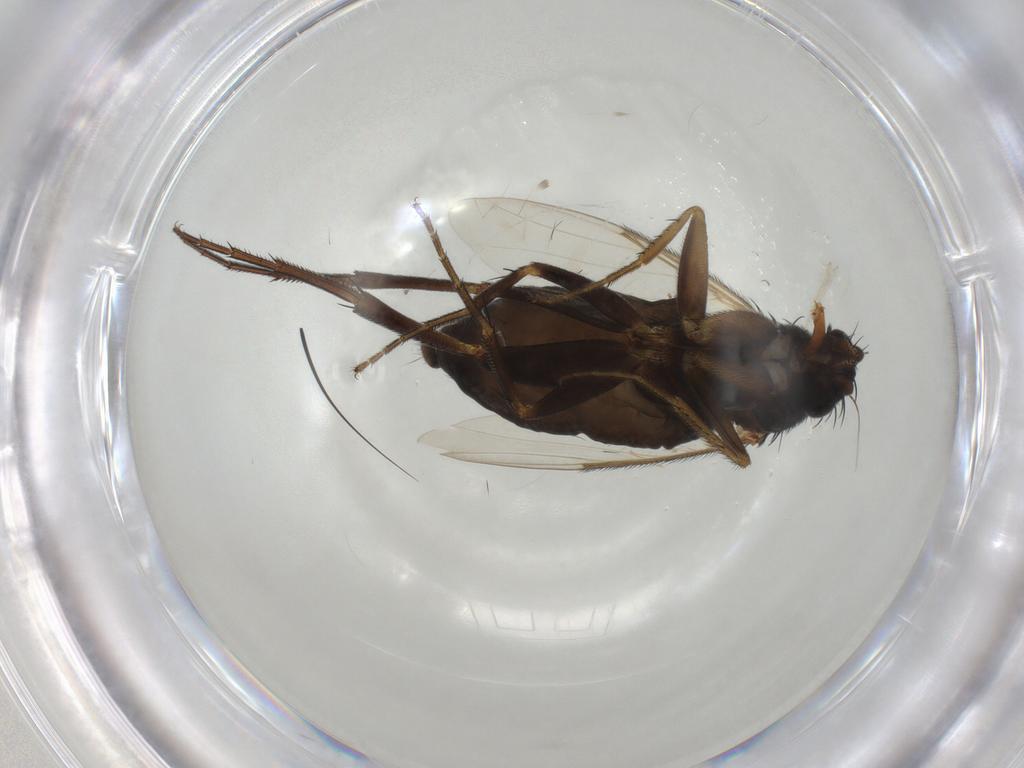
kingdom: Animalia
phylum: Arthropoda
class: Insecta
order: Diptera
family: Phoridae
